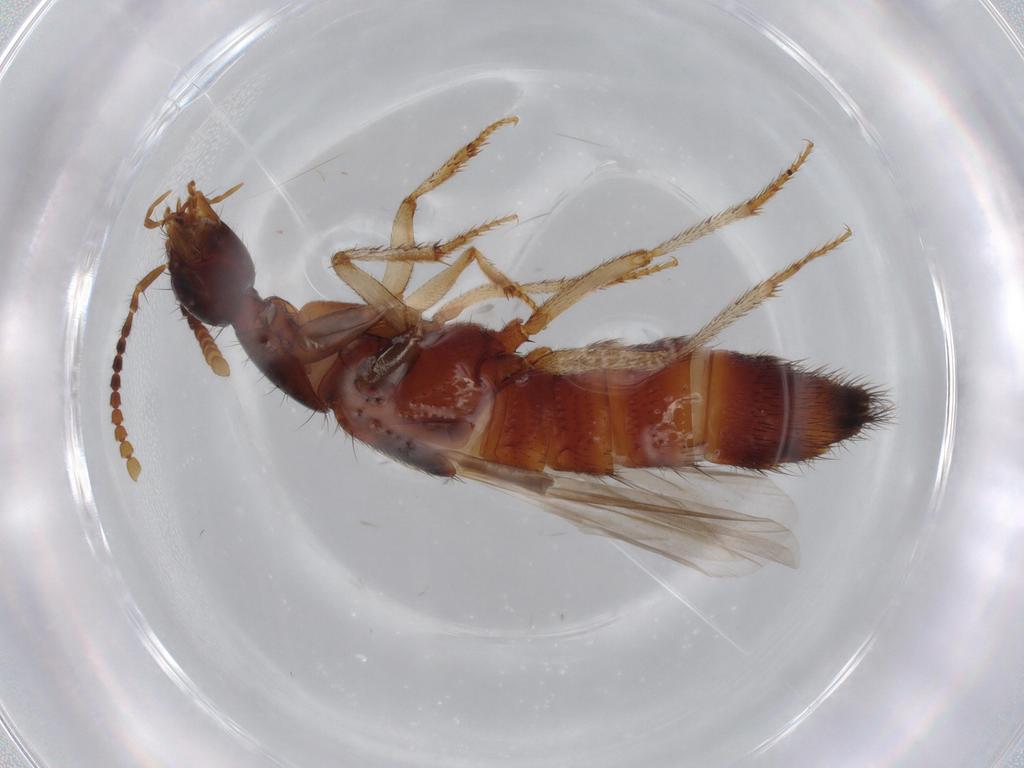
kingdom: Animalia
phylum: Arthropoda
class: Insecta
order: Coleoptera
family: Staphylinidae
